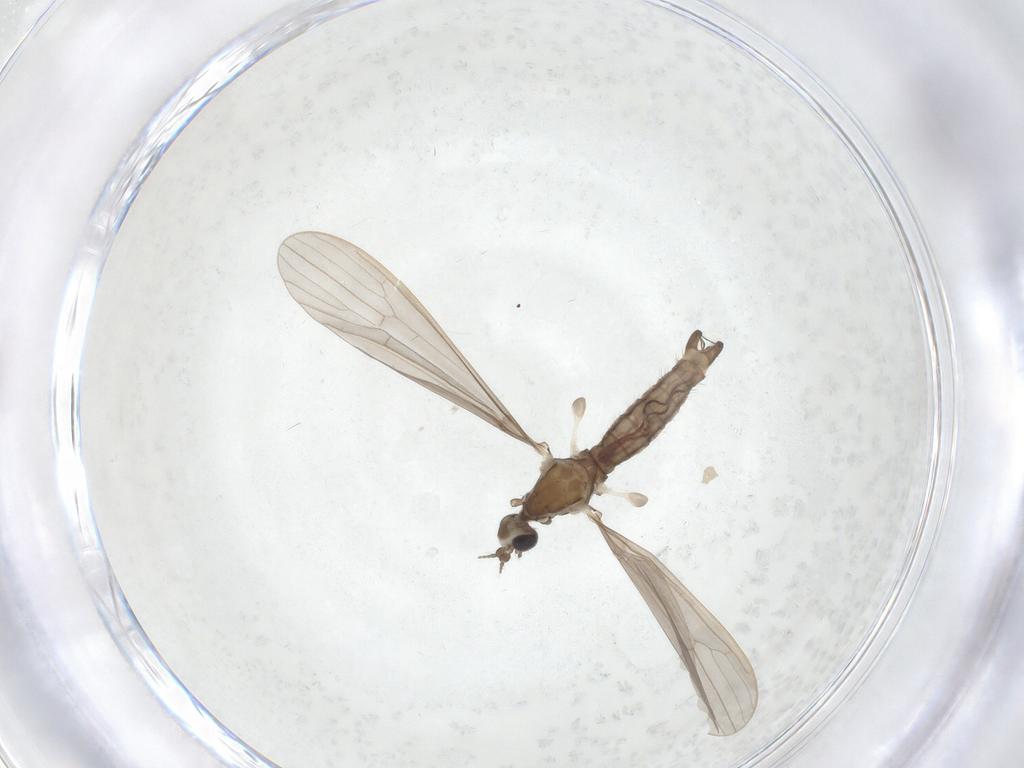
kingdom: Animalia
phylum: Arthropoda
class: Insecta
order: Diptera
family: Limoniidae
